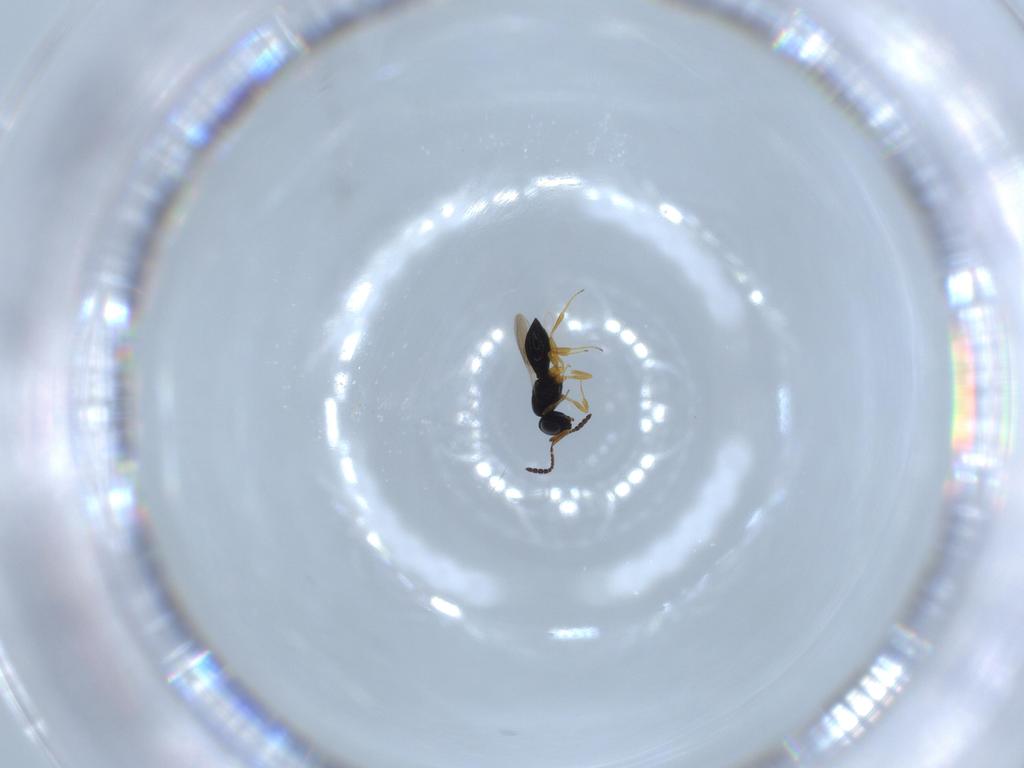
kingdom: Animalia
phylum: Arthropoda
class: Insecta
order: Hymenoptera
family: Scelionidae
